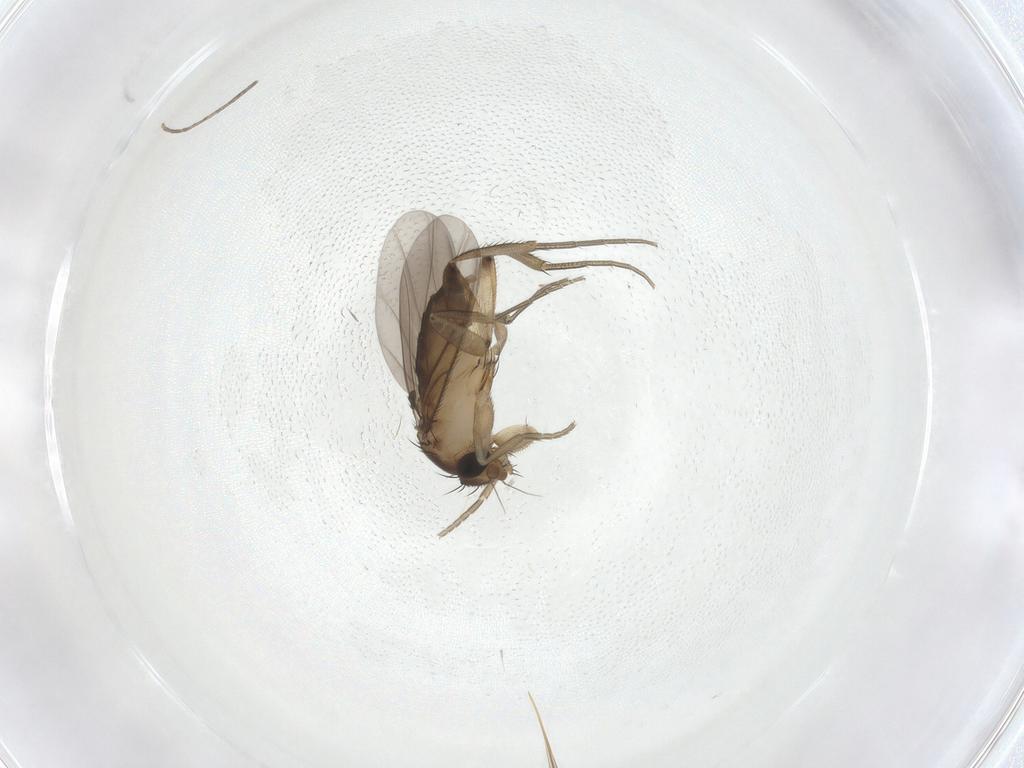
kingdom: Animalia
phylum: Arthropoda
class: Insecta
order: Diptera
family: Phoridae
